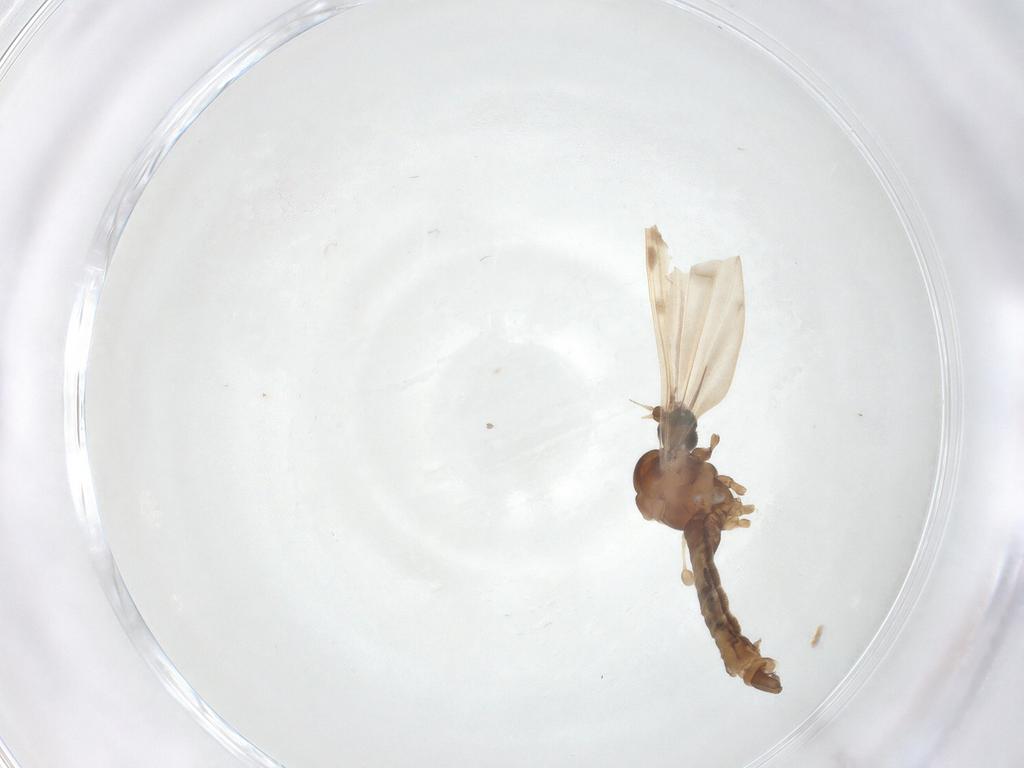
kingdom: Animalia
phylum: Arthropoda
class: Insecta
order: Diptera
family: Limoniidae
